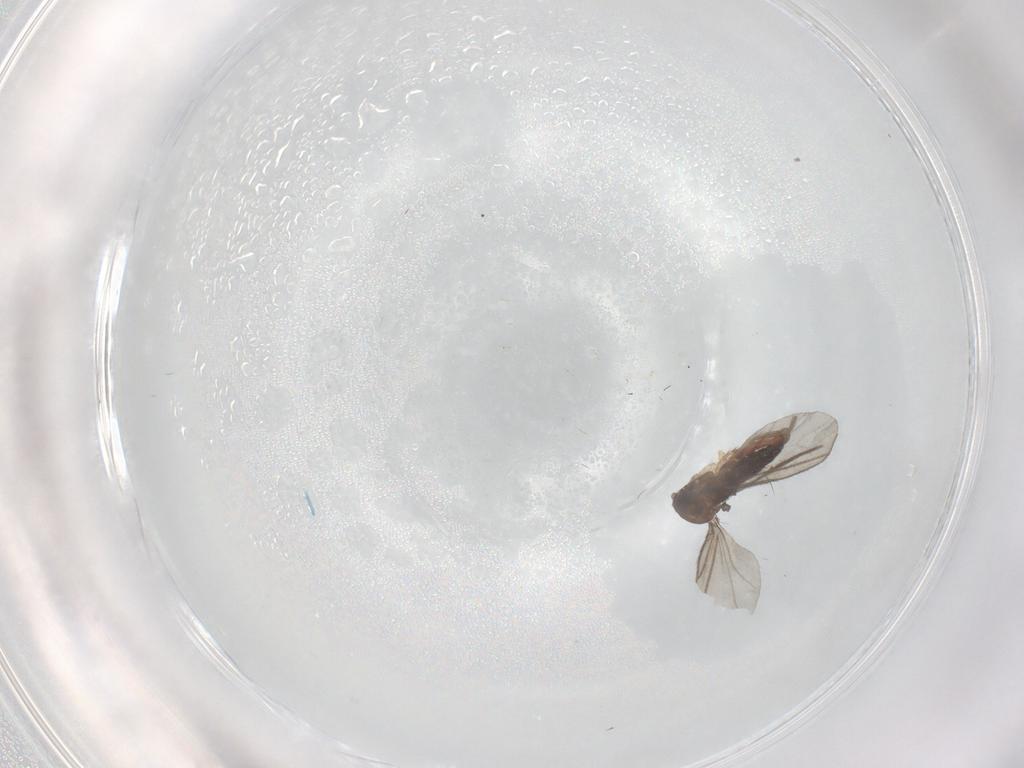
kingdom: Animalia
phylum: Arthropoda
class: Insecta
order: Diptera
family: Sciaridae
